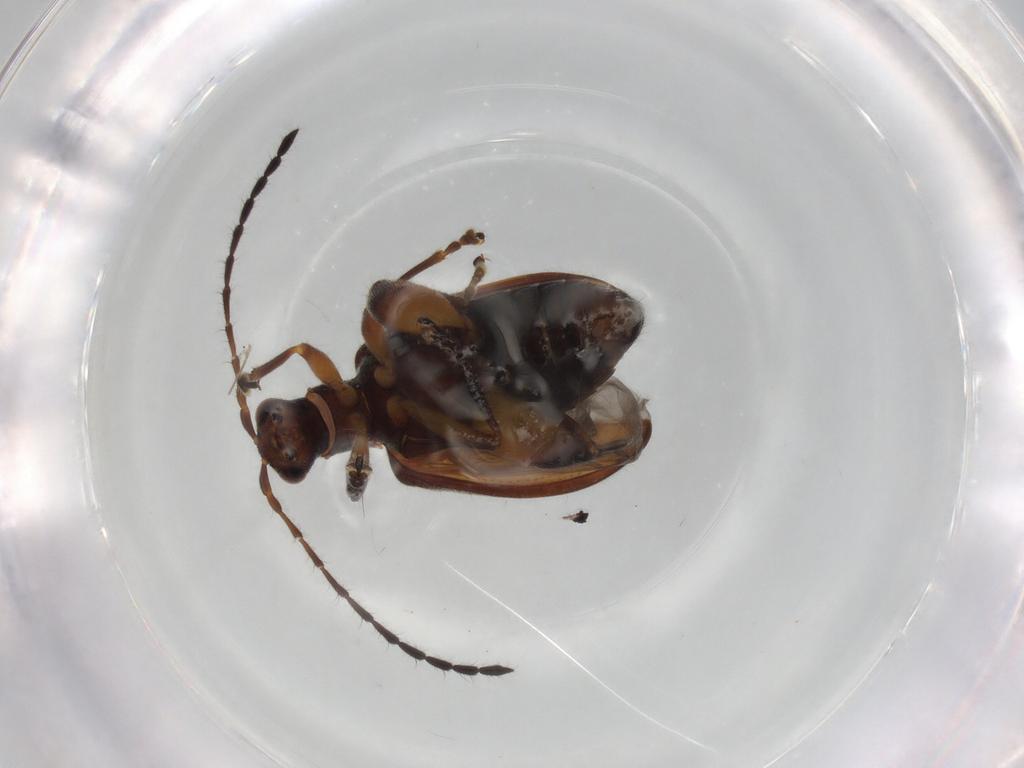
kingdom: Animalia
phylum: Arthropoda
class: Insecta
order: Coleoptera
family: Chrysomelidae
